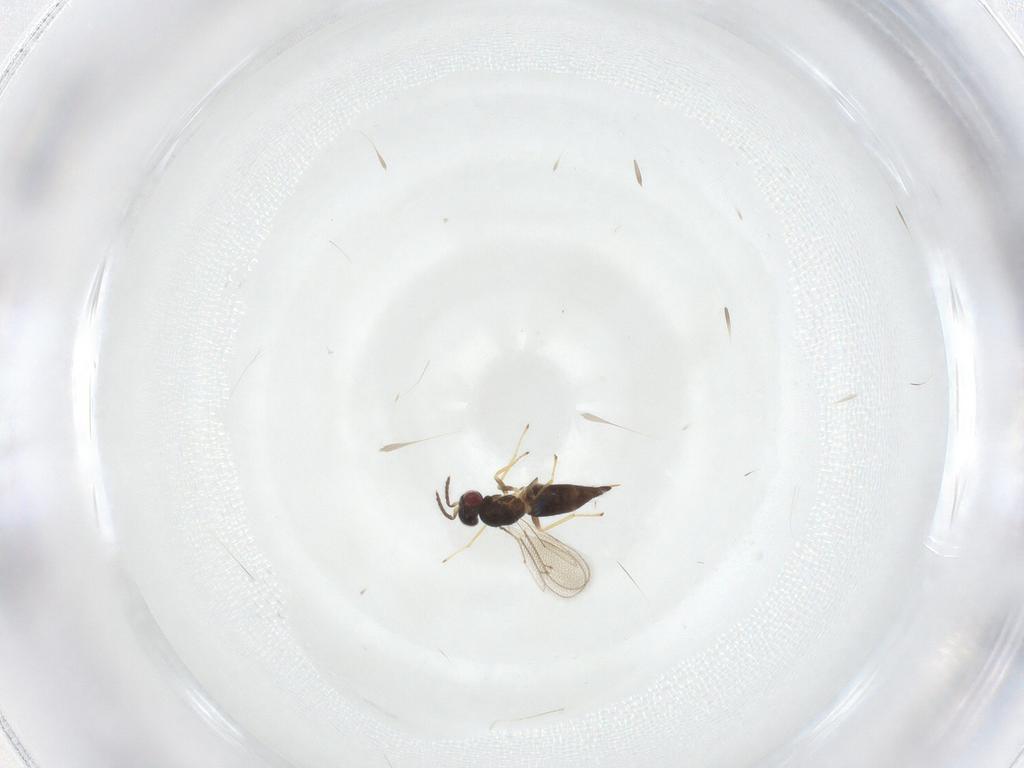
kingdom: Animalia
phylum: Arthropoda
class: Insecta
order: Hymenoptera
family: Eulophidae
